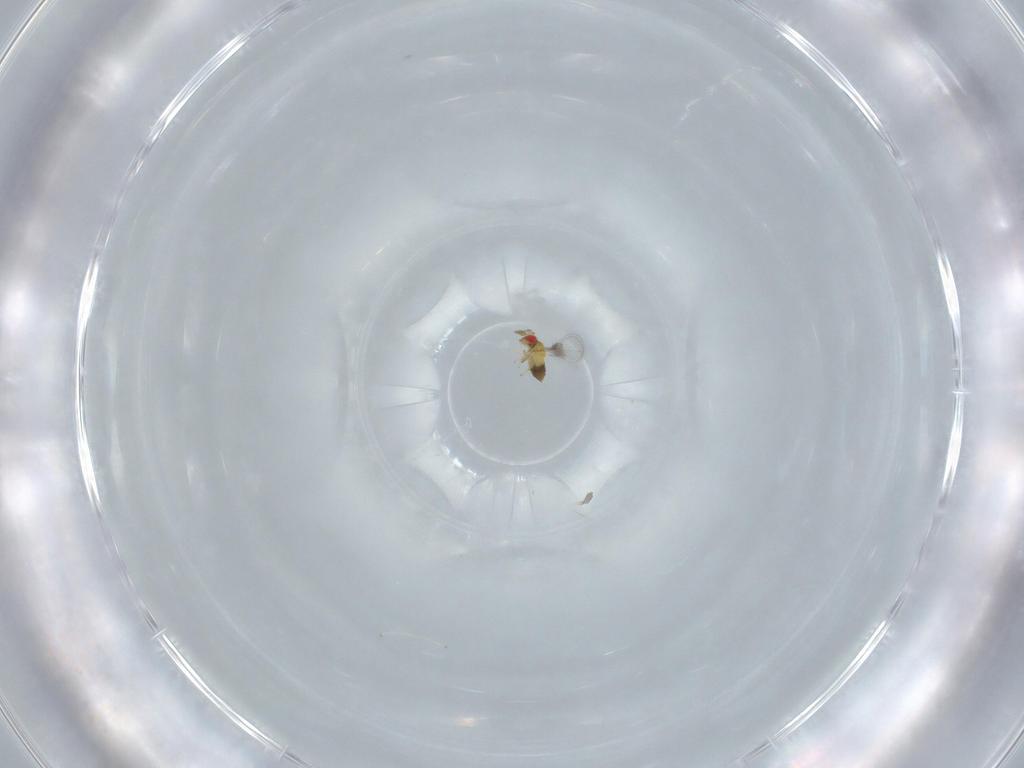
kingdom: Animalia
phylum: Arthropoda
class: Insecta
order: Hymenoptera
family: Trichogrammatidae
